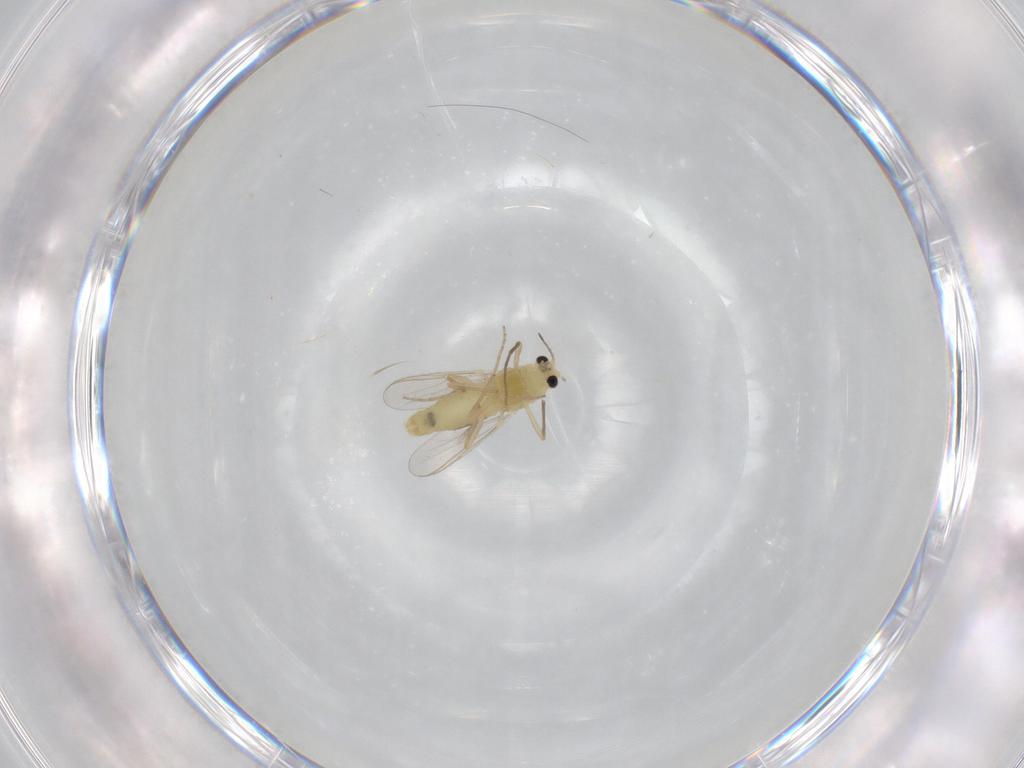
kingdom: Animalia
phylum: Arthropoda
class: Insecta
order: Diptera
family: Chironomidae
